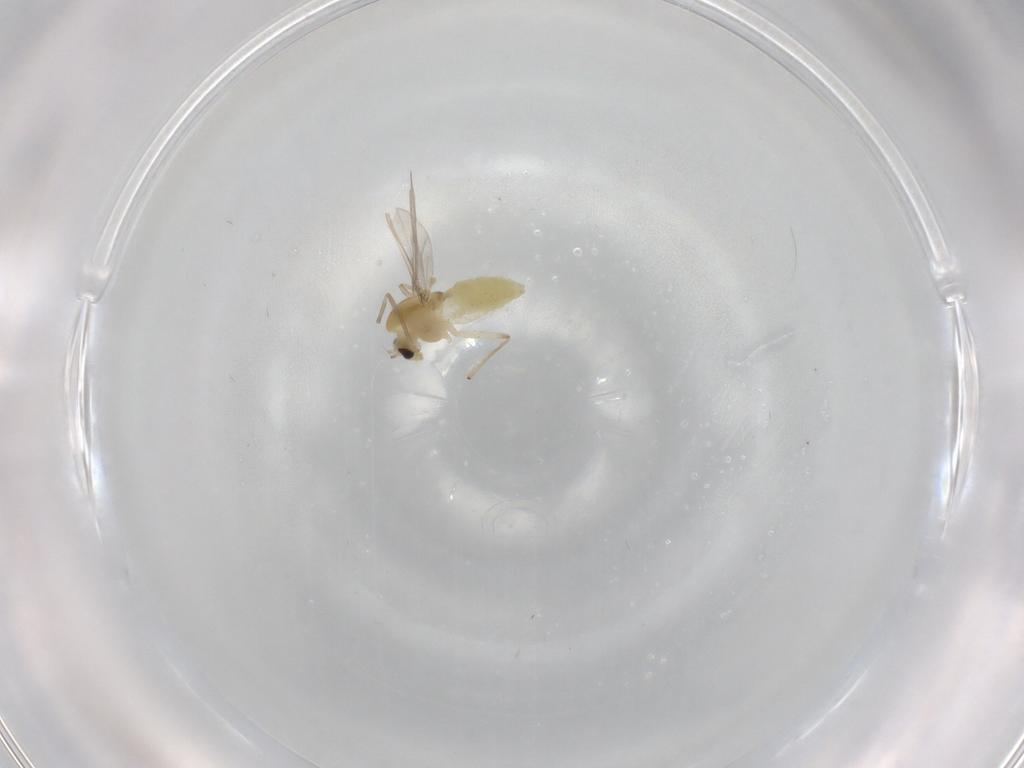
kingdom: Animalia
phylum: Arthropoda
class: Insecta
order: Diptera
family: Chironomidae
